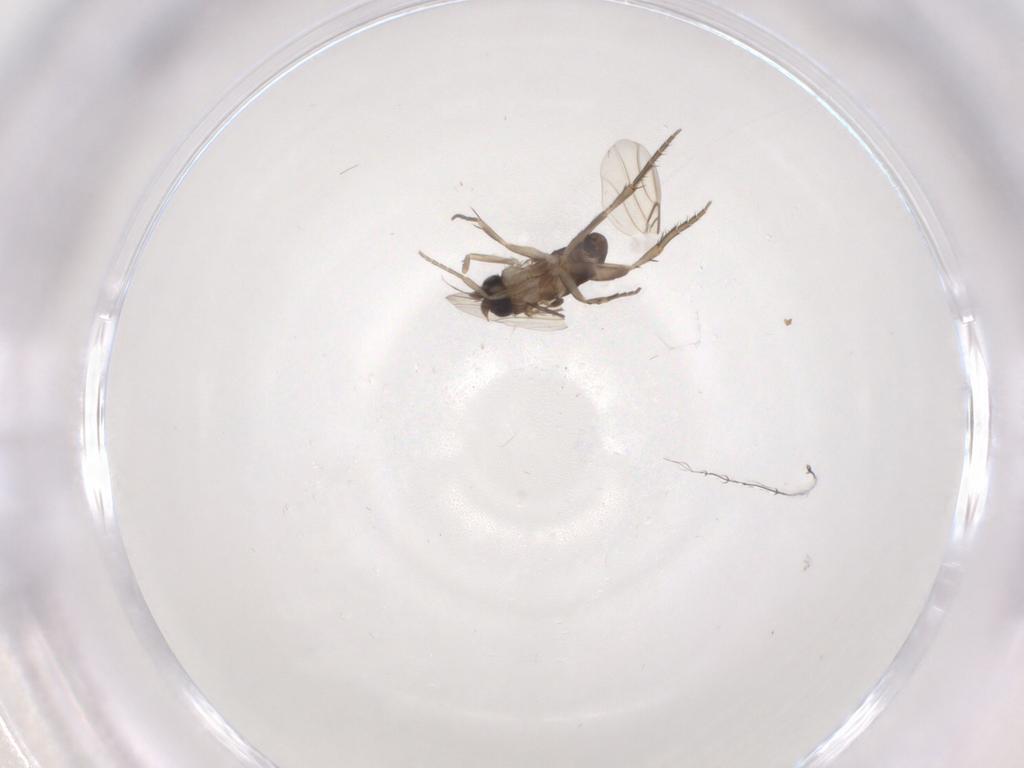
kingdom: Animalia
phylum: Arthropoda
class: Insecta
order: Diptera
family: Phoridae
